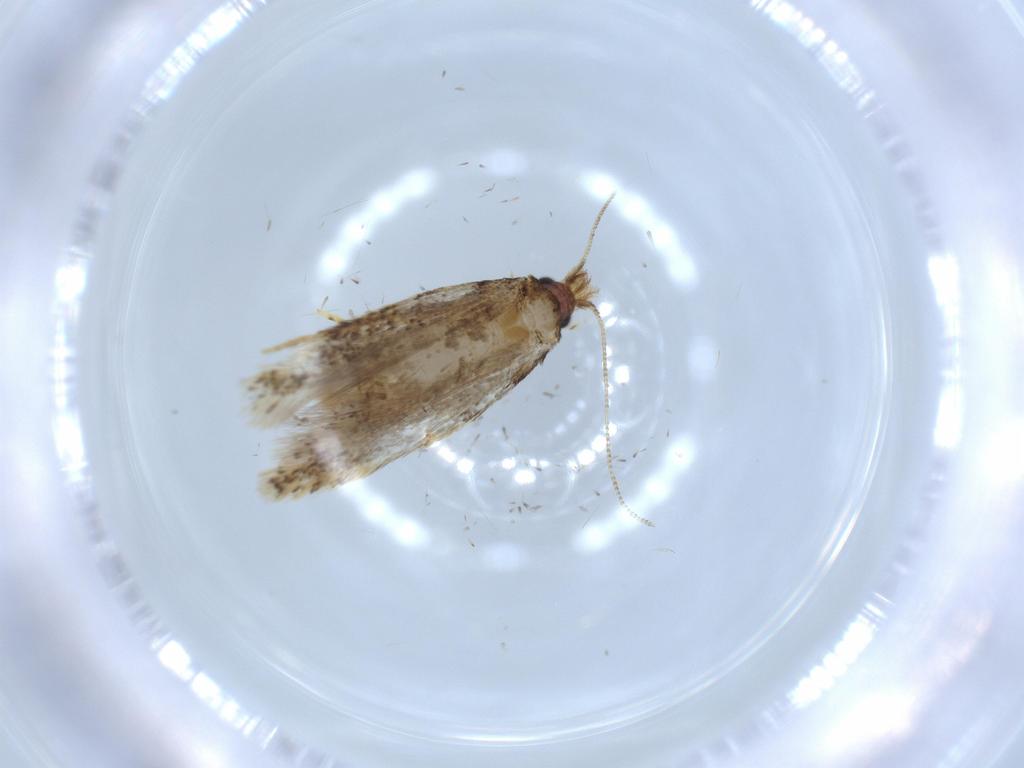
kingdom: Animalia
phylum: Arthropoda
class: Insecta
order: Lepidoptera
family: Tineidae
